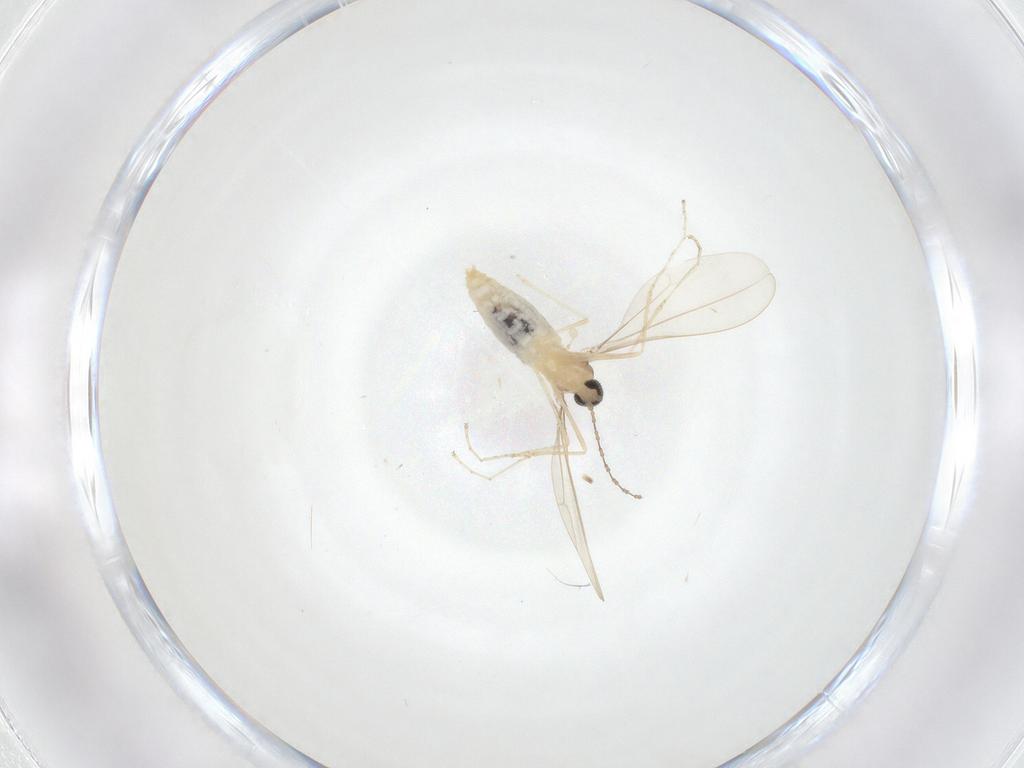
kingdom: Animalia
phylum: Arthropoda
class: Insecta
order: Diptera
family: Cecidomyiidae
